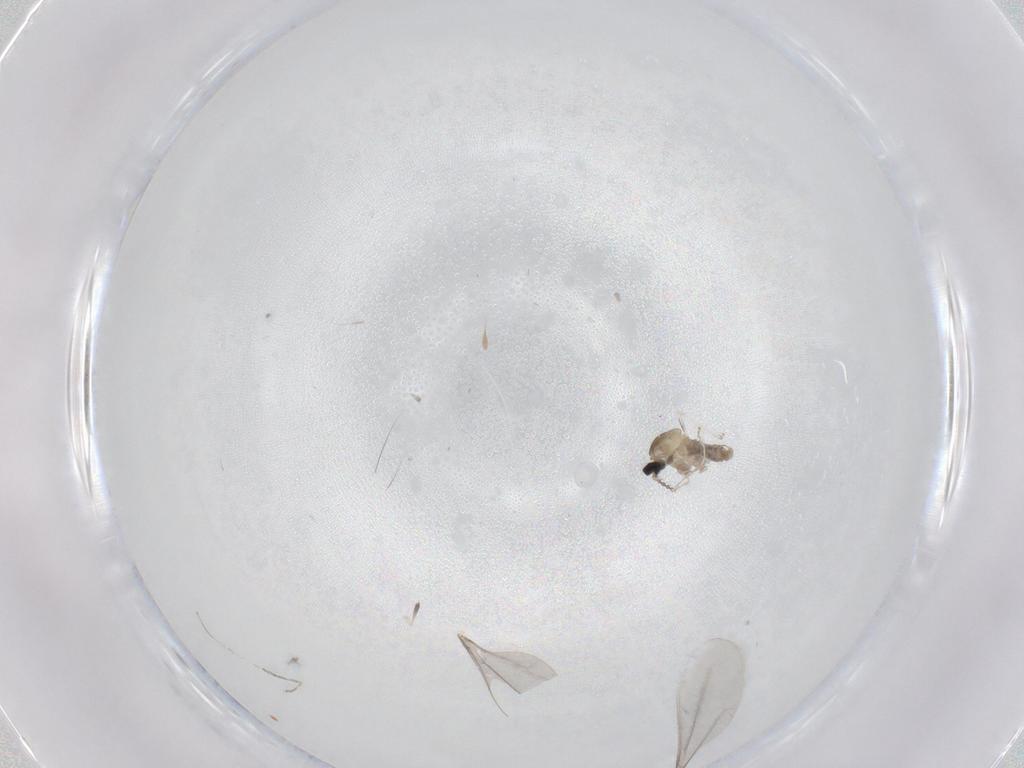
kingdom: Animalia
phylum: Arthropoda
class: Insecta
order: Diptera
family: Cecidomyiidae
